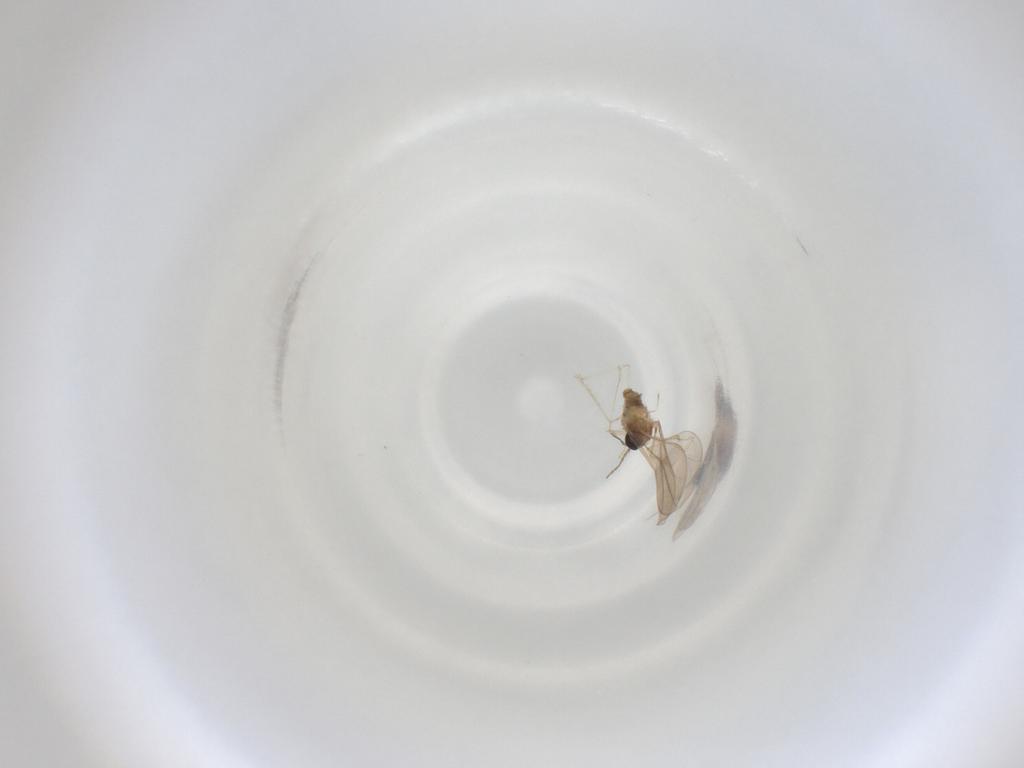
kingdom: Animalia
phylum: Arthropoda
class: Insecta
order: Diptera
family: Cecidomyiidae
